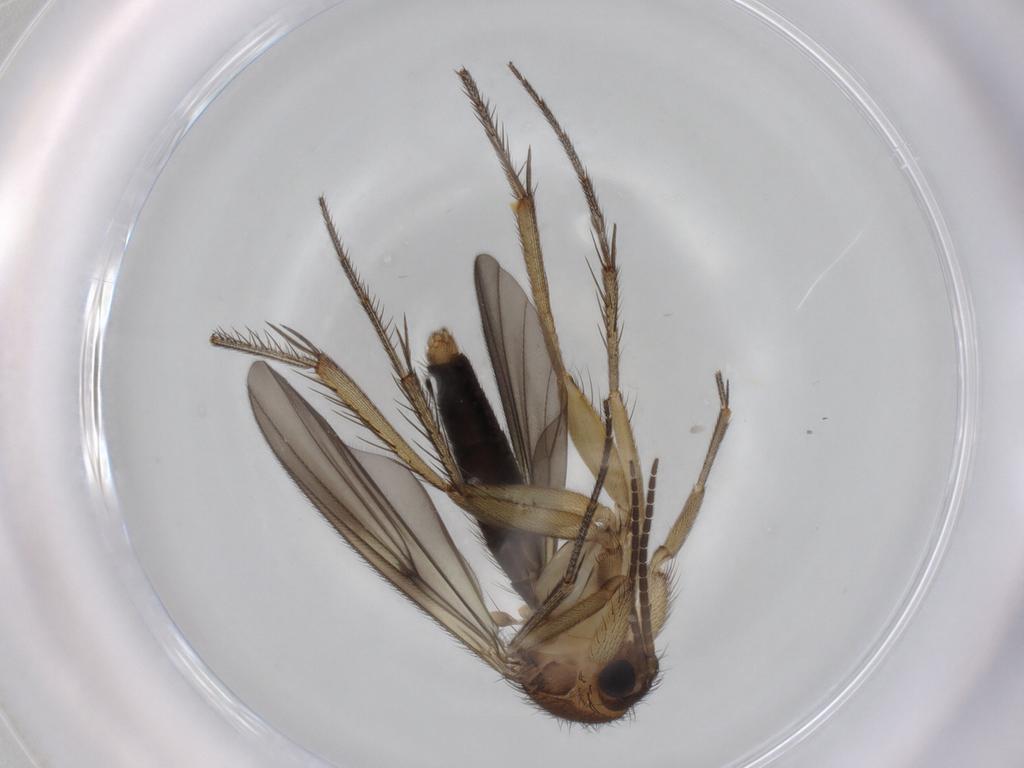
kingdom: Animalia
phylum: Arthropoda
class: Insecta
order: Diptera
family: Mycetophilidae
